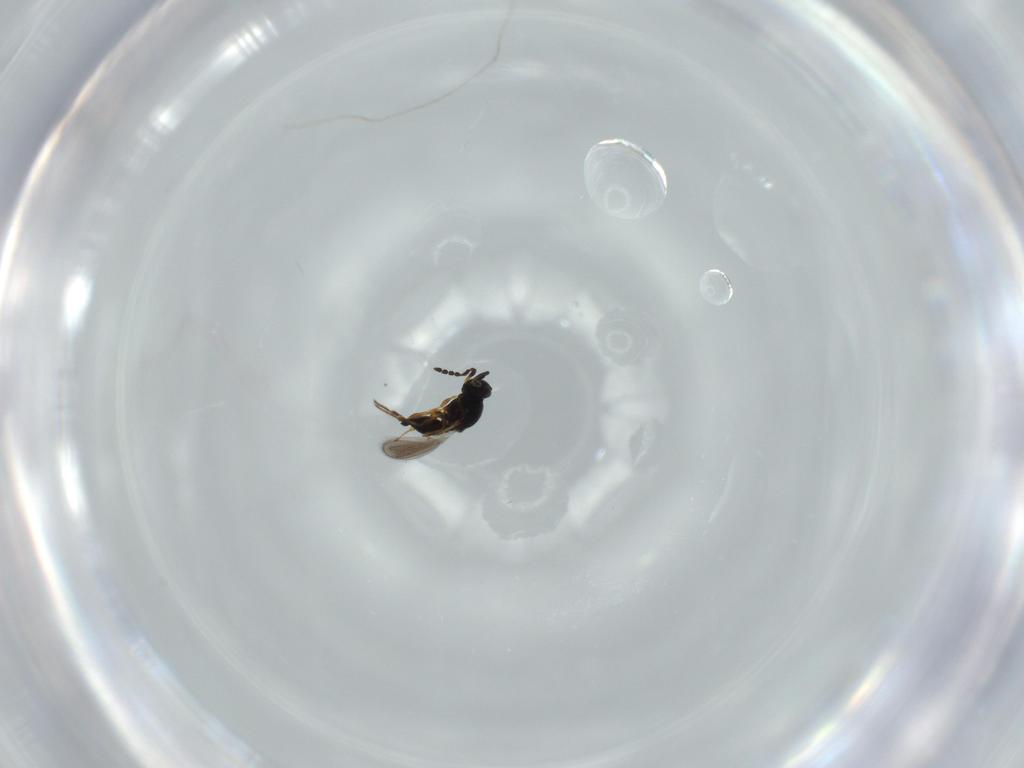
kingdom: Animalia
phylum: Arthropoda
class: Insecta
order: Hymenoptera
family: Platygastridae
